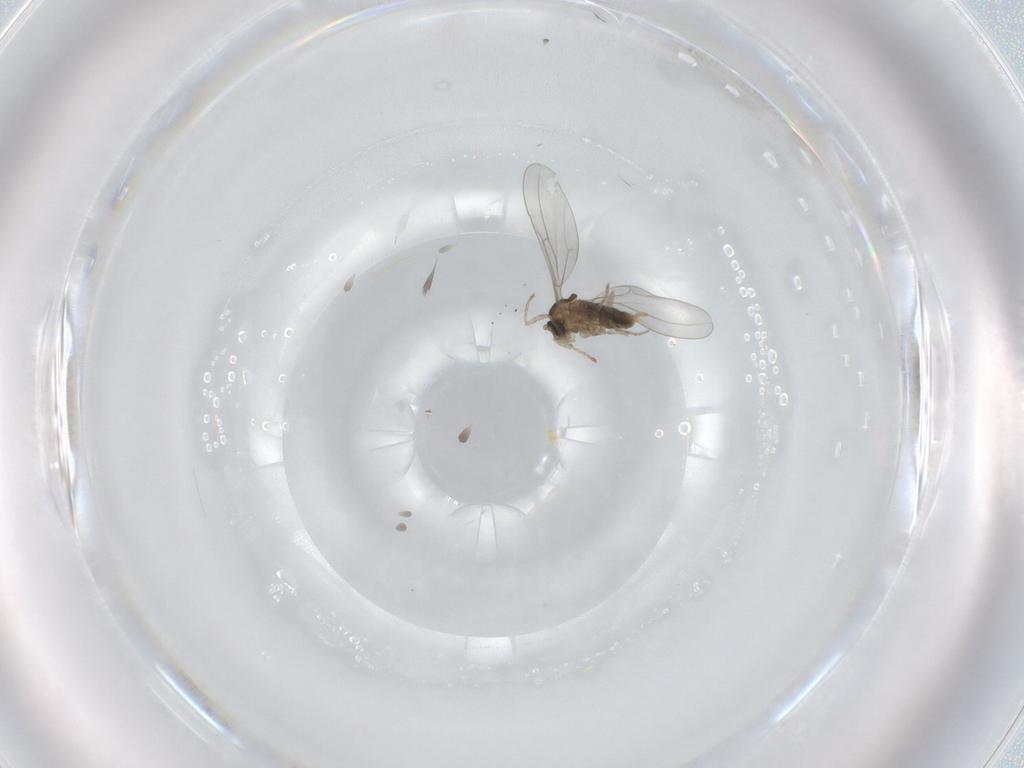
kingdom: Animalia
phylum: Arthropoda
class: Insecta
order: Diptera
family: Cecidomyiidae
